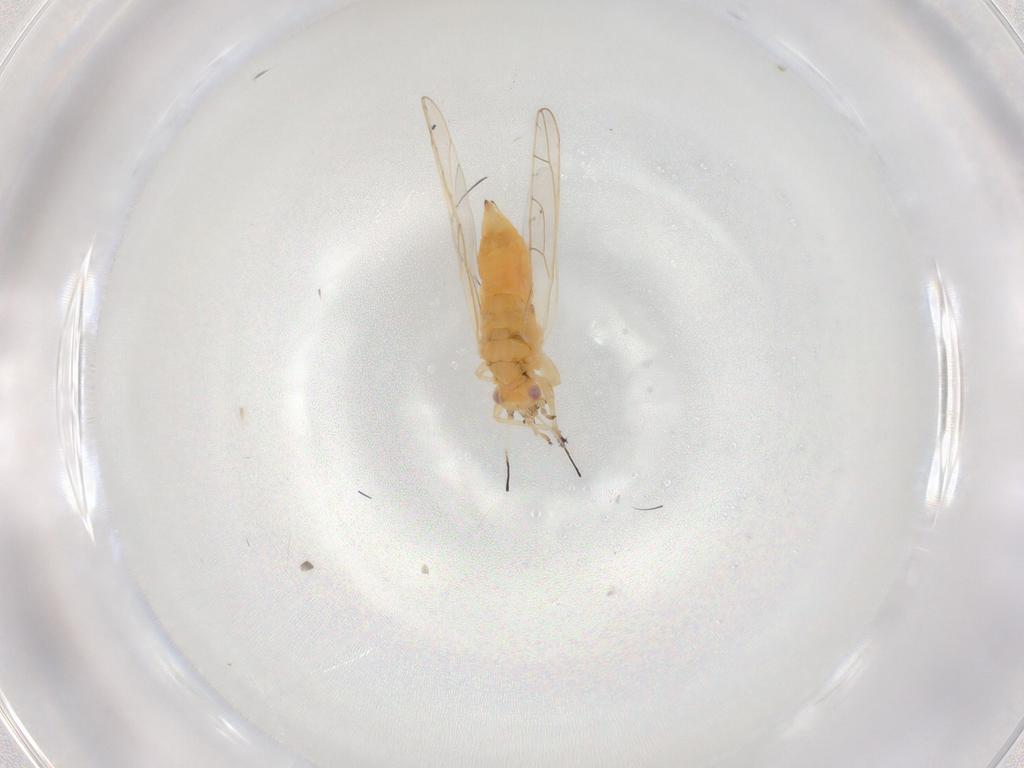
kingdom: Animalia
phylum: Arthropoda
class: Insecta
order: Hemiptera
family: Triozidae
